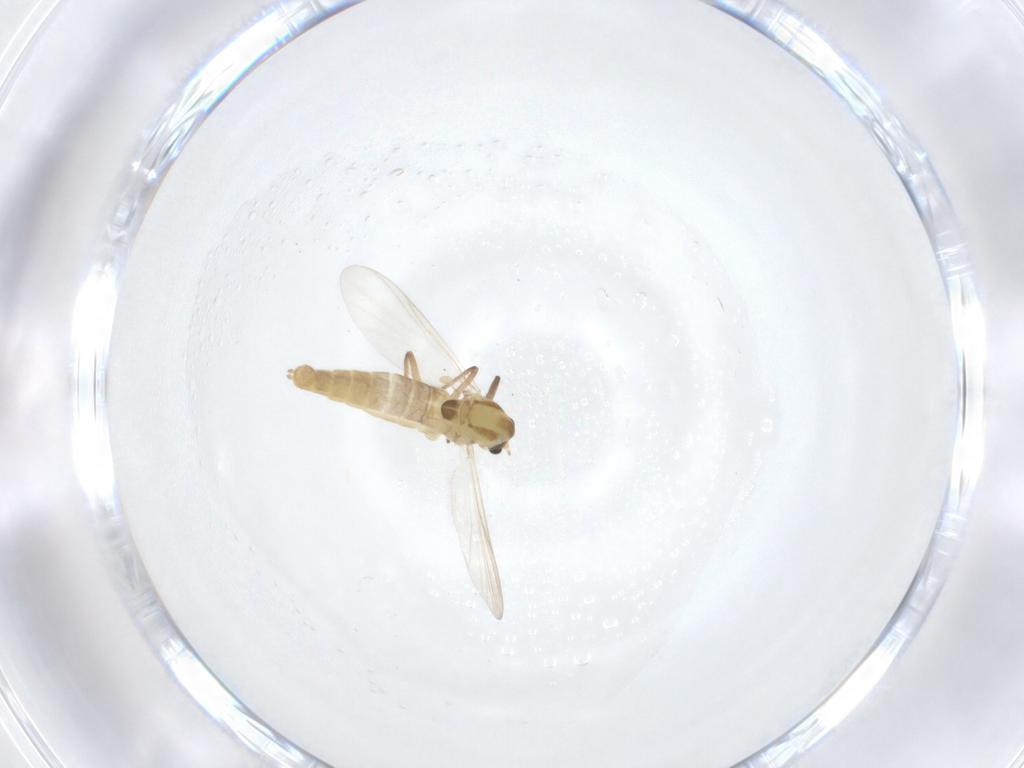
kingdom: Animalia
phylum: Arthropoda
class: Insecta
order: Diptera
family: Chironomidae
